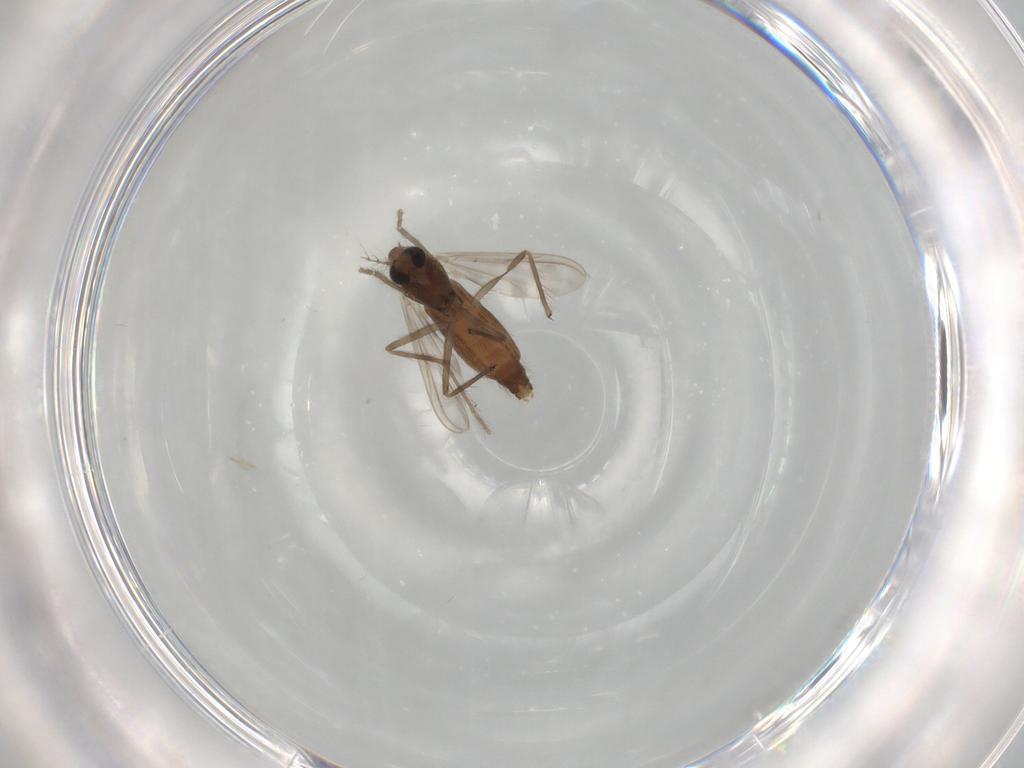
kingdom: Animalia
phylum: Arthropoda
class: Insecta
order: Diptera
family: Chironomidae
